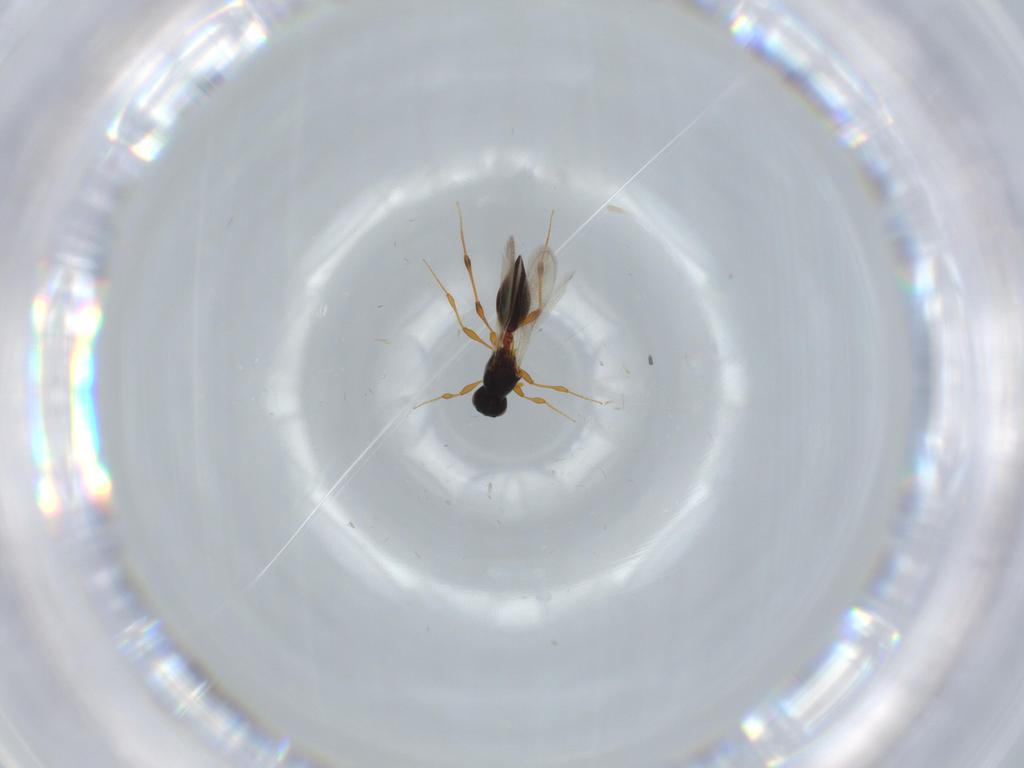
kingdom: Animalia
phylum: Arthropoda
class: Insecta
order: Hymenoptera
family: Platygastridae
